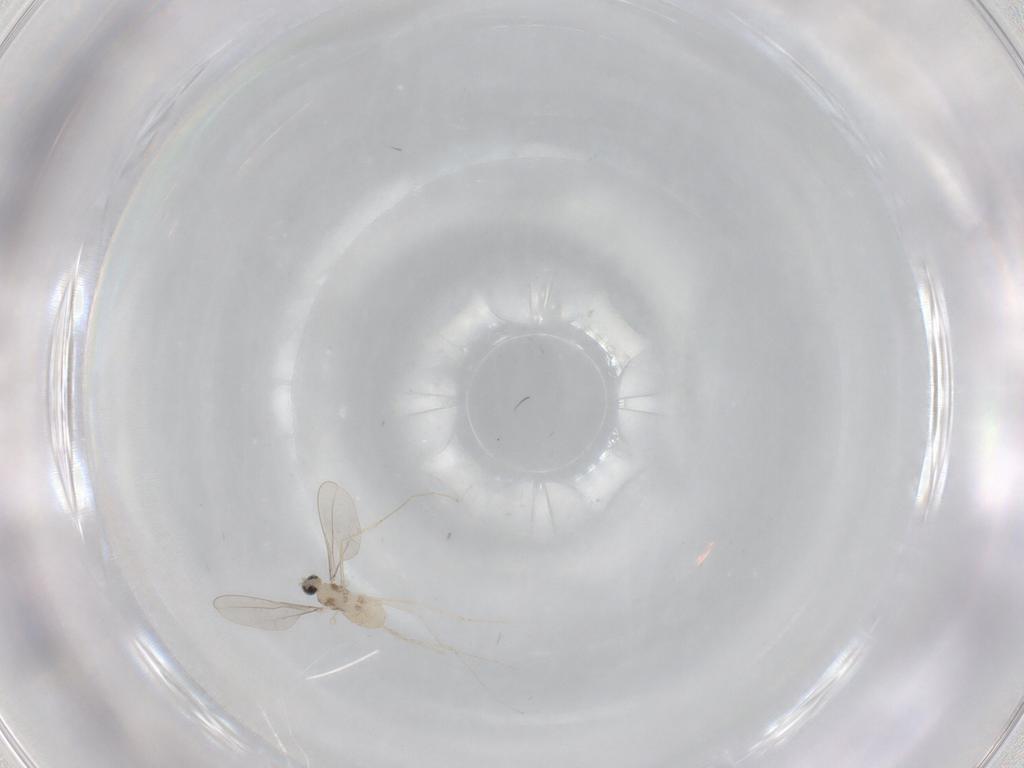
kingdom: Animalia
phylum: Arthropoda
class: Insecta
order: Diptera
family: Cecidomyiidae
